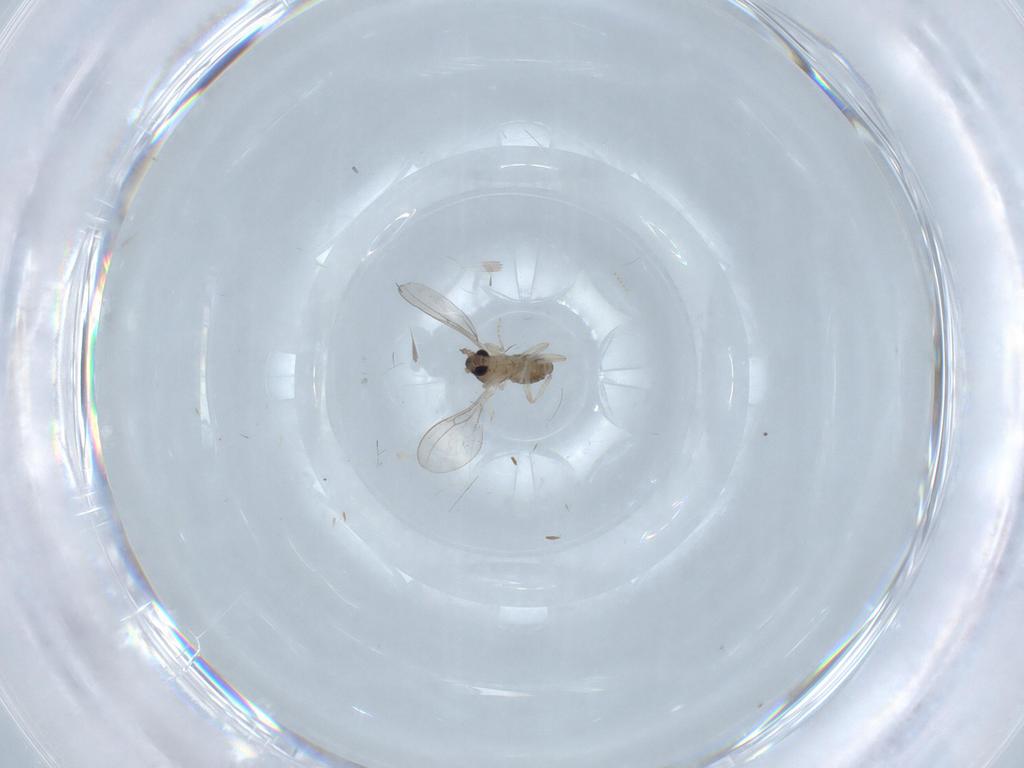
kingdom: Animalia
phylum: Arthropoda
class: Insecta
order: Diptera
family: Cecidomyiidae
